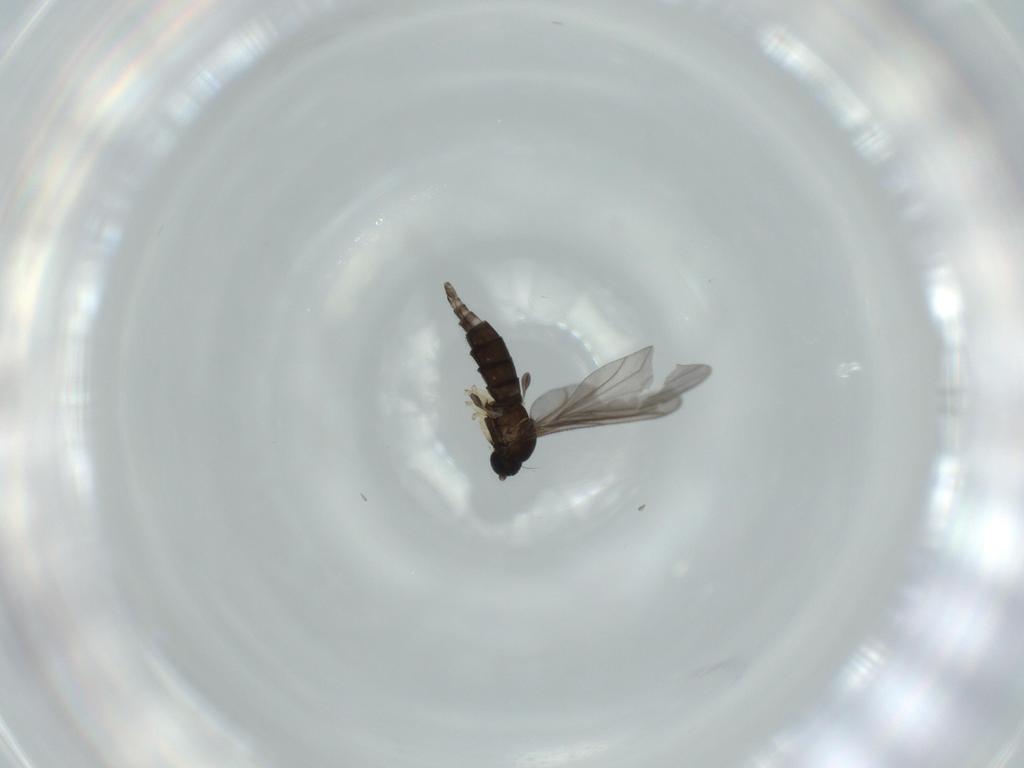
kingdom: Animalia
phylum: Arthropoda
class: Insecta
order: Diptera
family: Sciaridae
